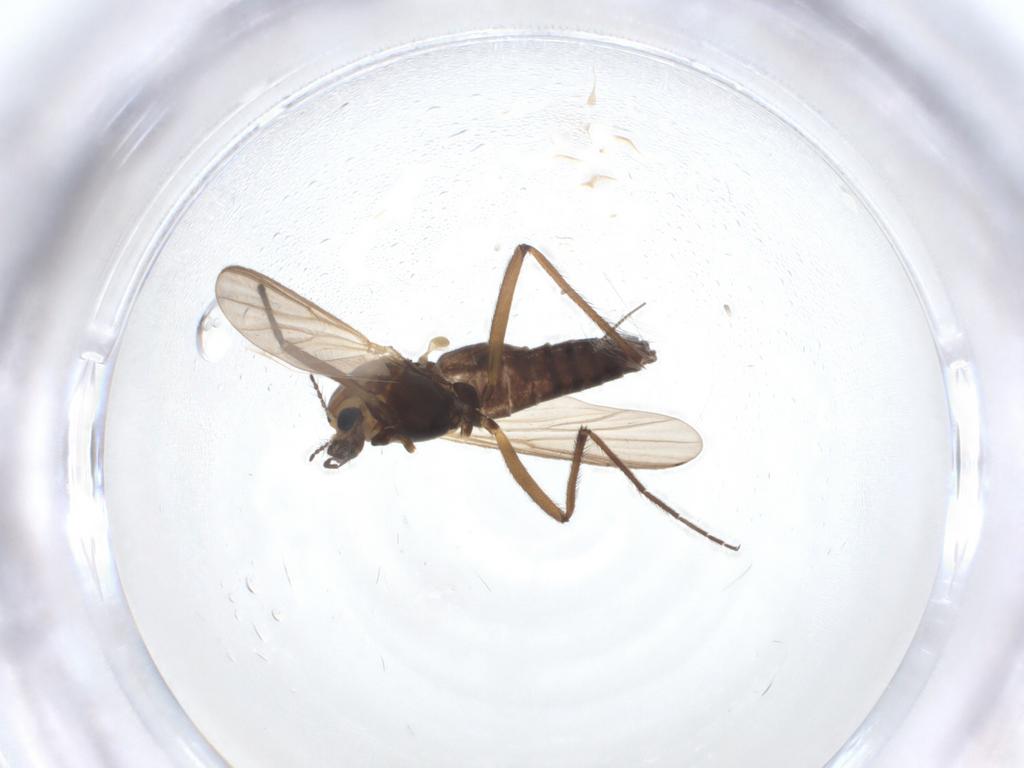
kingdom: Animalia
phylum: Arthropoda
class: Insecta
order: Diptera
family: Chironomidae
